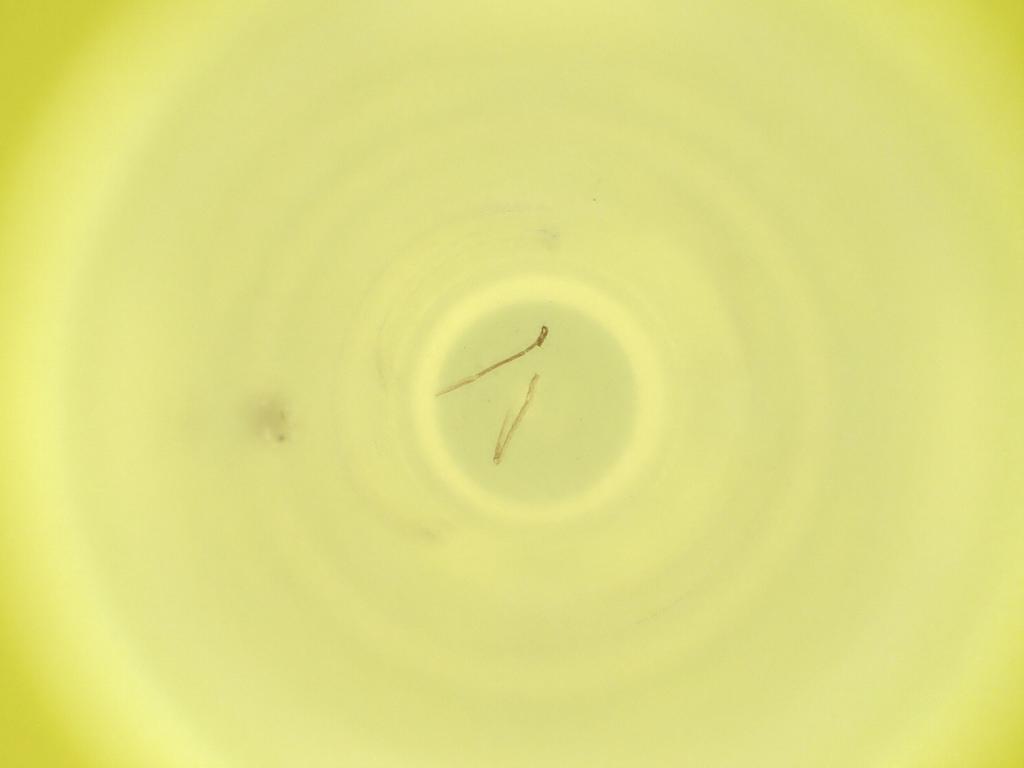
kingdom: Animalia
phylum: Arthropoda
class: Insecta
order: Diptera
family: Cecidomyiidae
